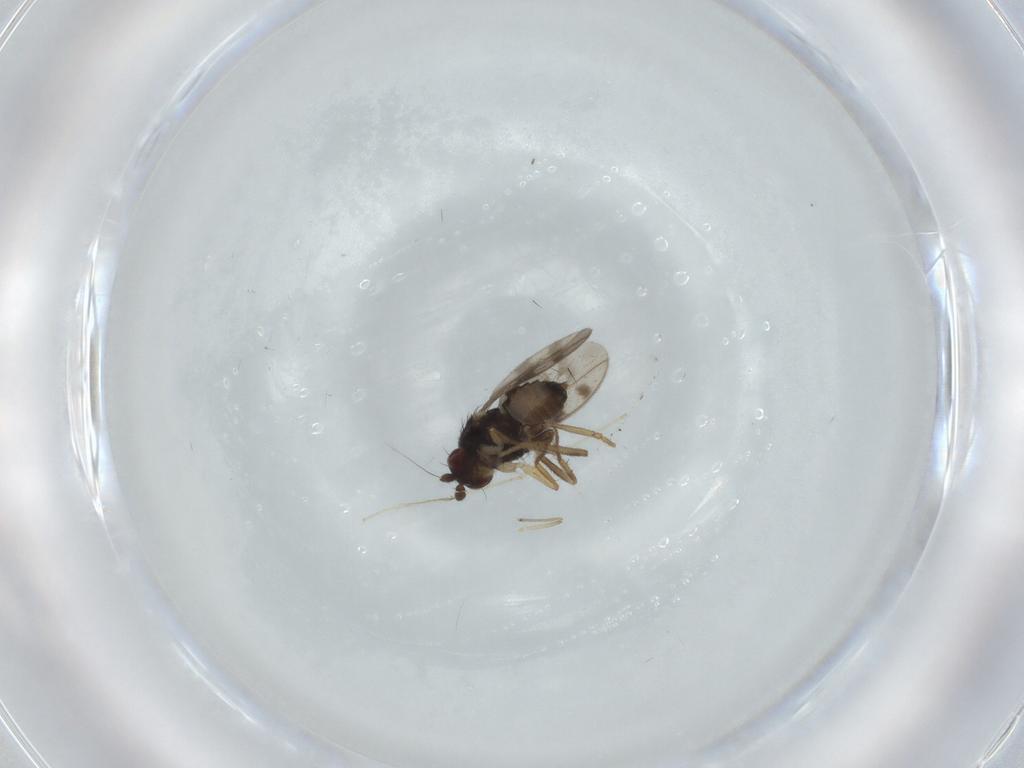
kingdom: Animalia
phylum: Arthropoda
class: Insecta
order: Diptera
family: Sphaeroceridae
